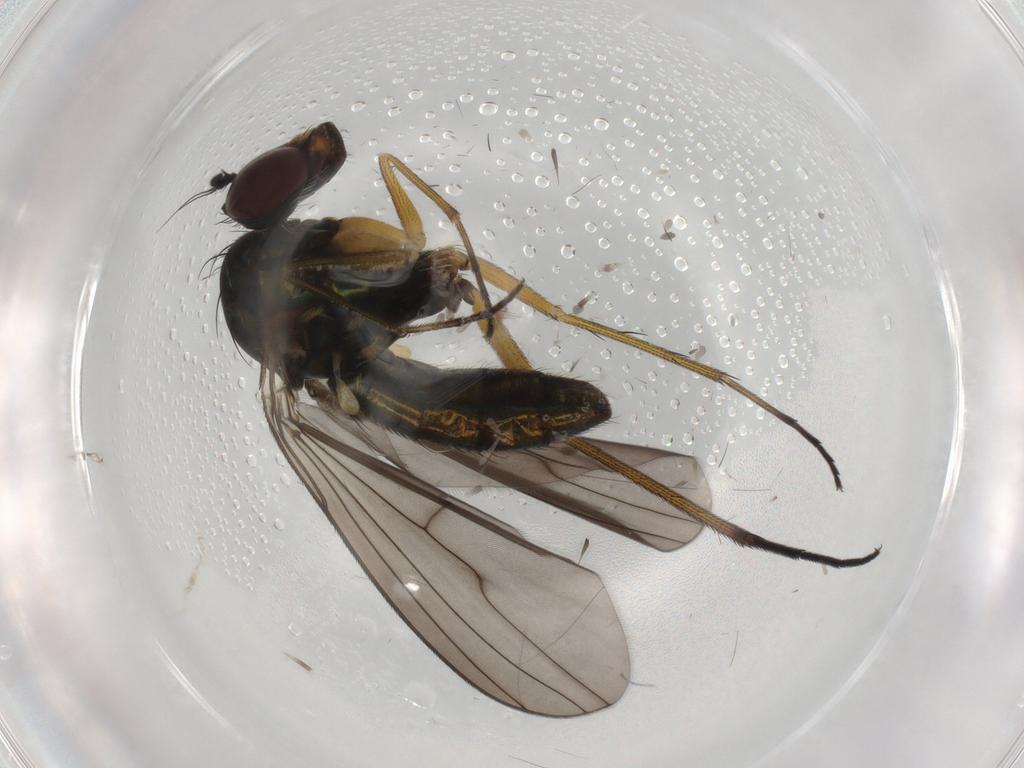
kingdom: Animalia
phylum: Arthropoda
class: Insecta
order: Diptera
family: Dolichopodidae
